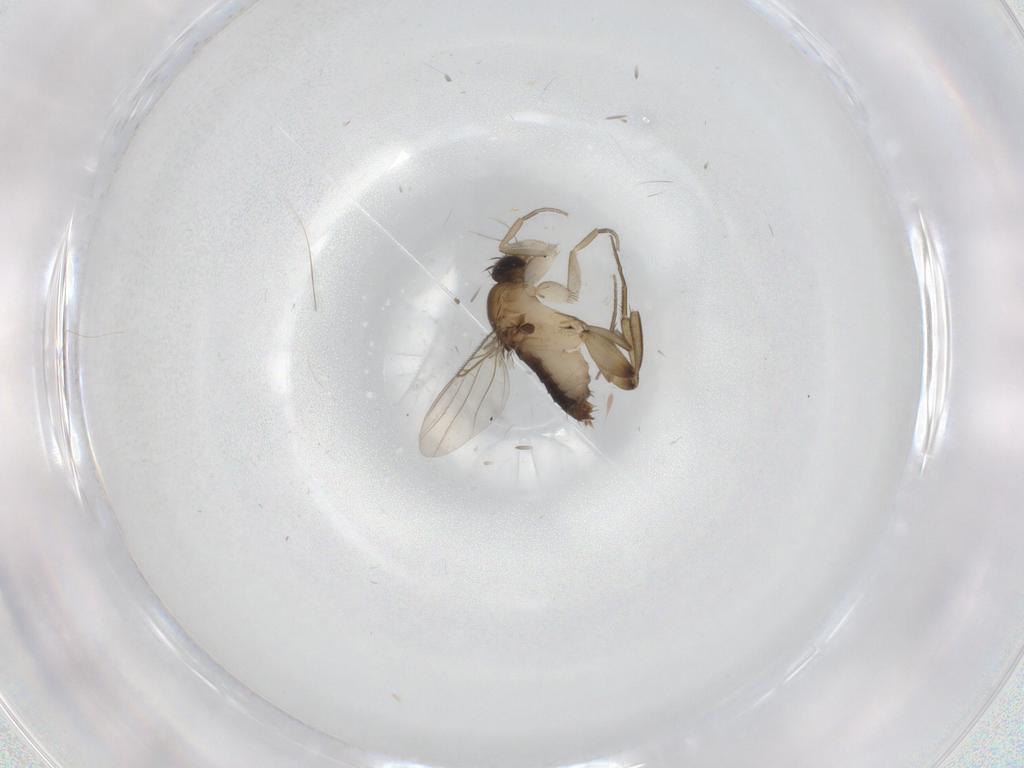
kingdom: Animalia
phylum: Arthropoda
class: Insecta
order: Diptera
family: Phoridae
